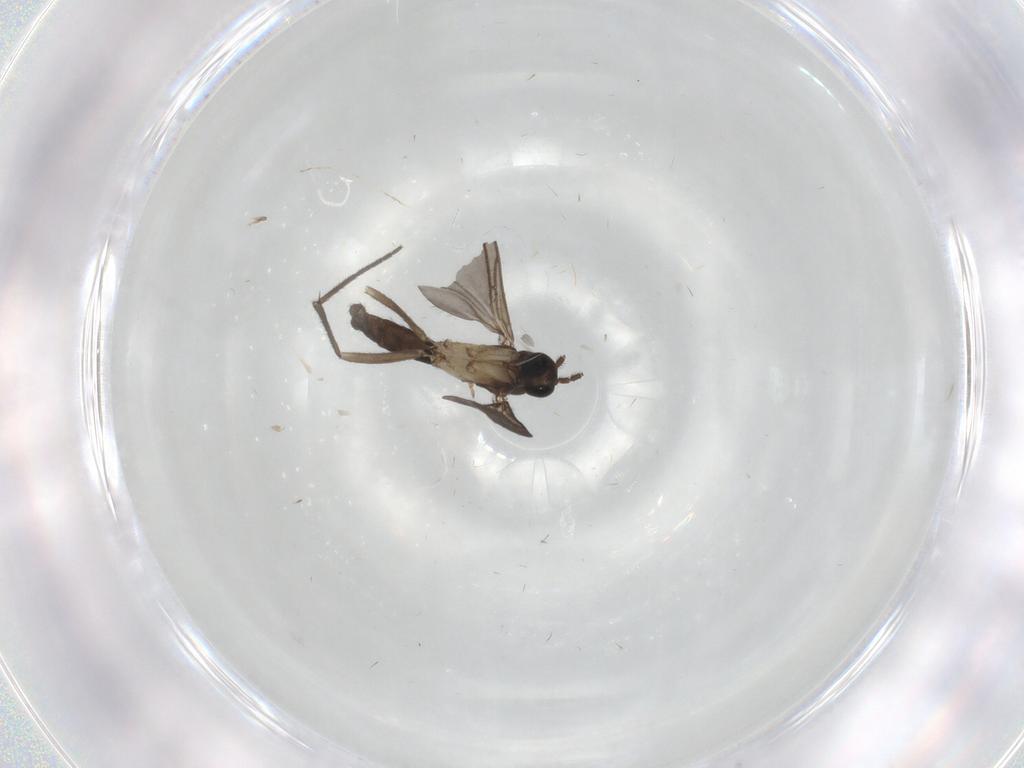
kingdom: Animalia
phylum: Arthropoda
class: Insecta
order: Diptera
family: Sciaridae
